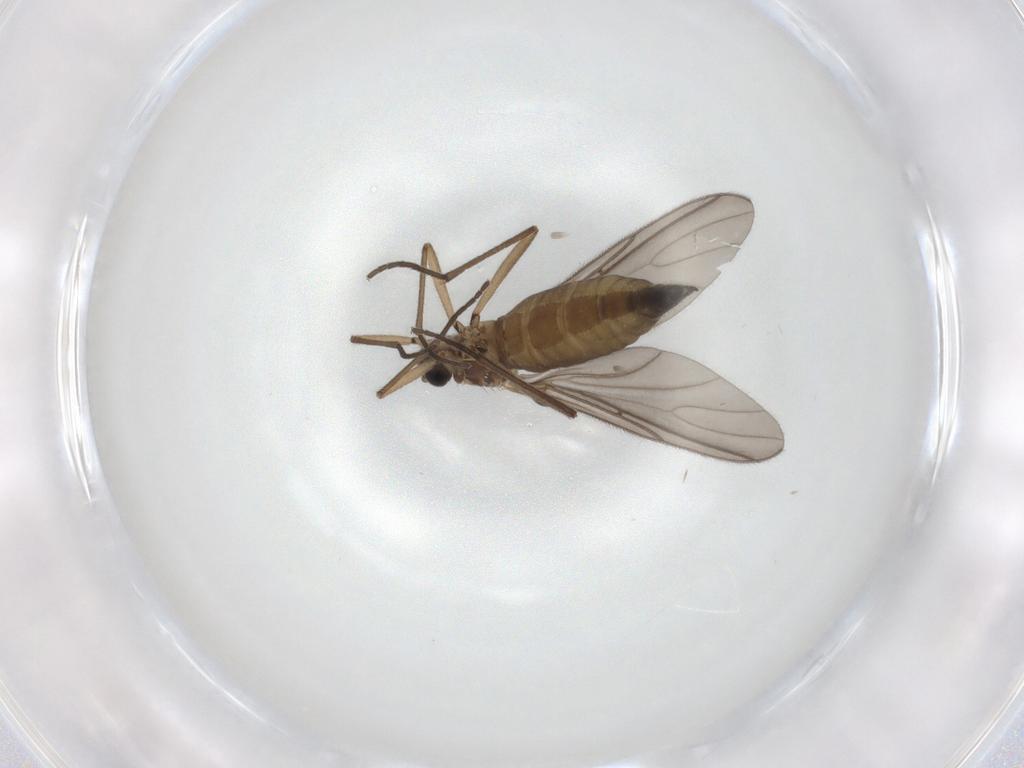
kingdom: Animalia
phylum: Arthropoda
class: Insecta
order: Diptera
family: Sciaridae
